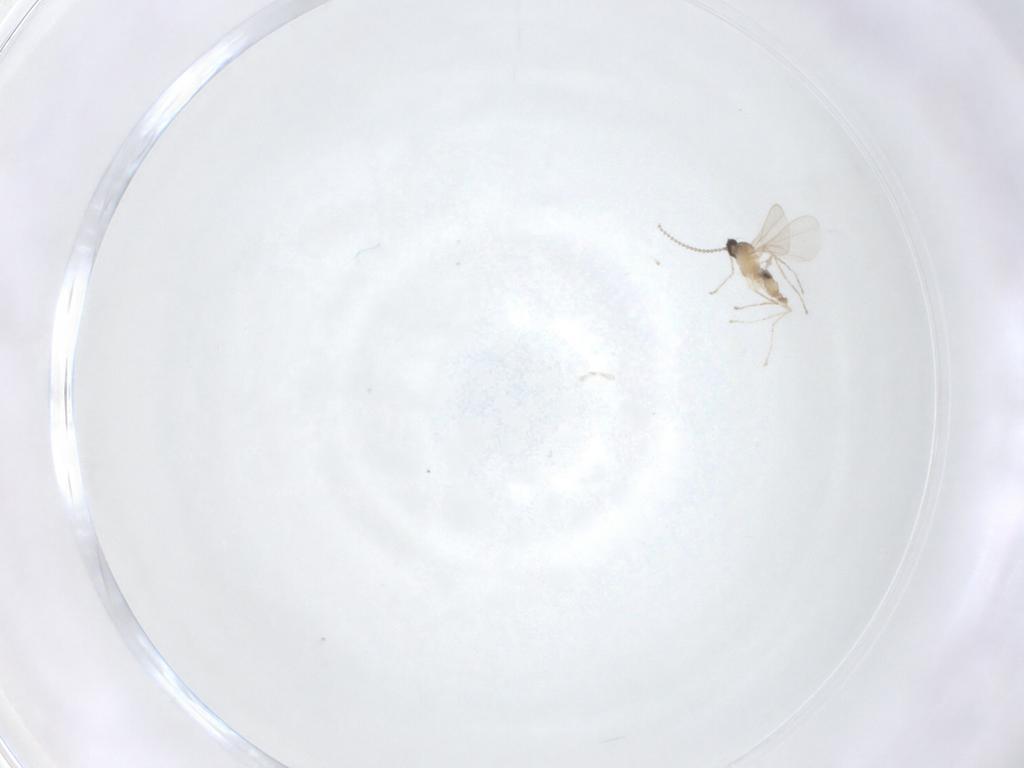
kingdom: Animalia
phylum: Arthropoda
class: Insecta
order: Diptera
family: Cecidomyiidae
